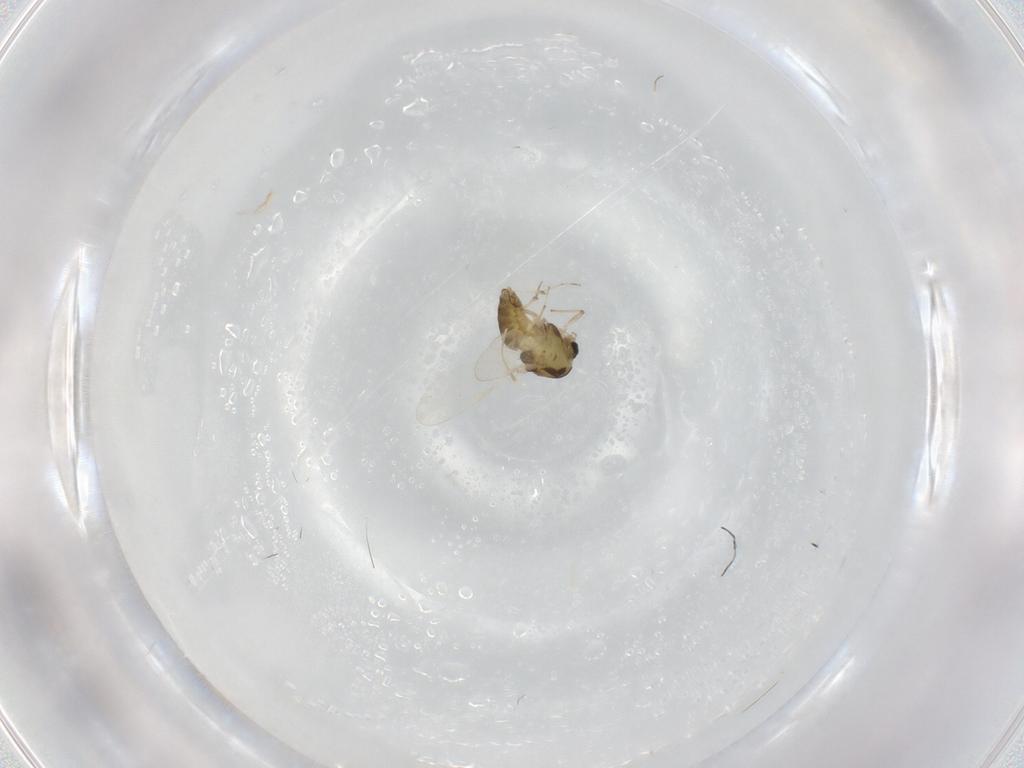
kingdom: Animalia
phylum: Arthropoda
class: Insecta
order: Diptera
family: Chironomidae
